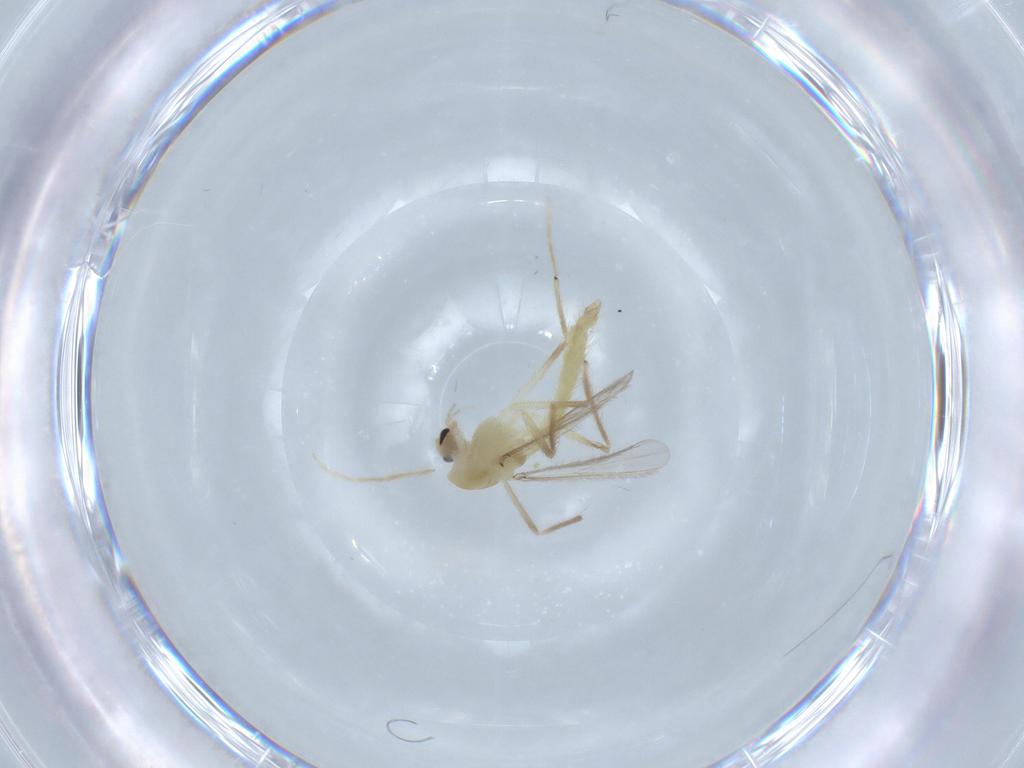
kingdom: Animalia
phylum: Arthropoda
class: Insecta
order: Diptera
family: Chironomidae
